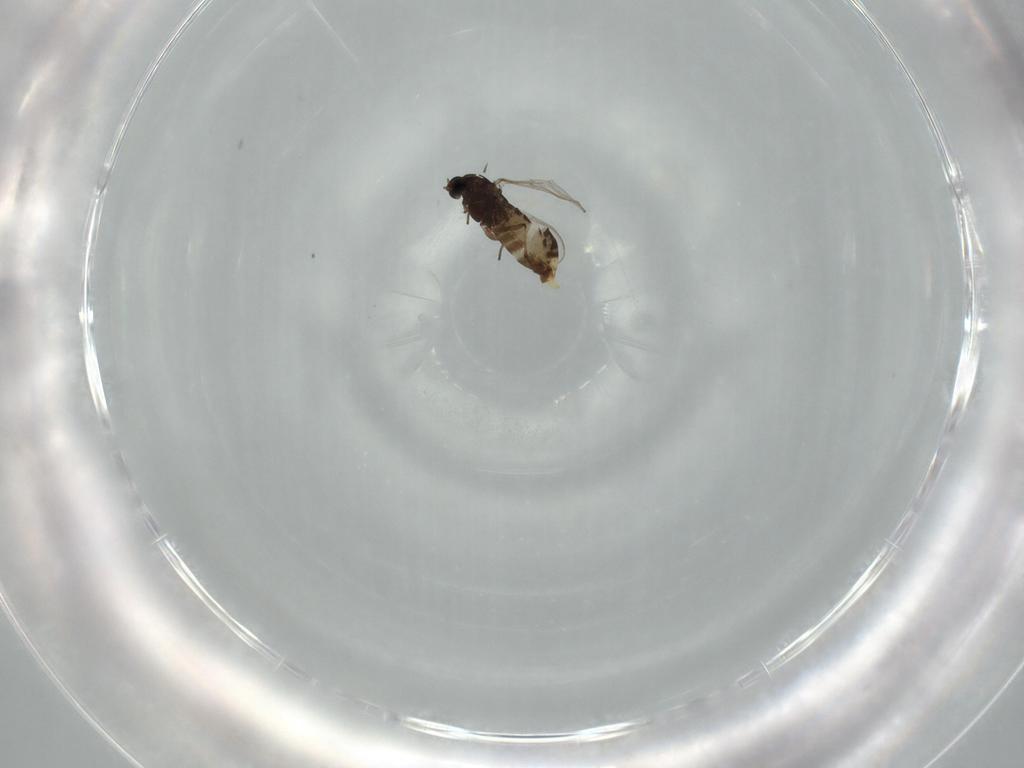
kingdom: Animalia
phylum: Arthropoda
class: Insecta
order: Diptera
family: Chironomidae
